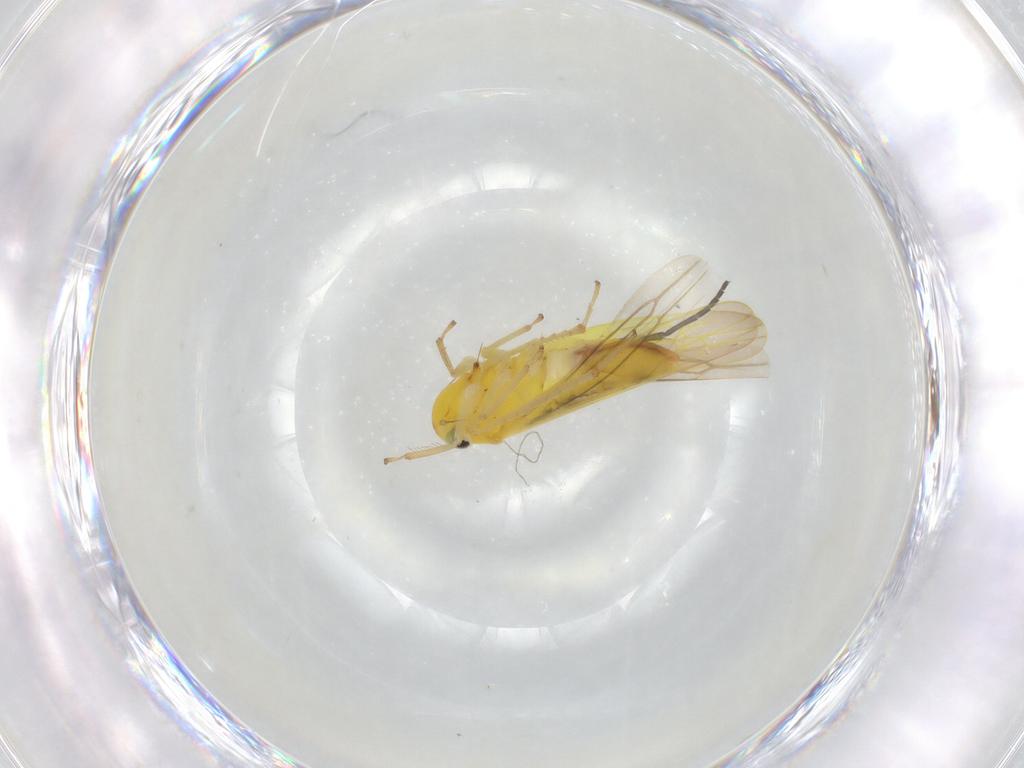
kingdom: Animalia
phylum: Arthropoda
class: Insecta
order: Hemiptera
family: Cicadellidae
